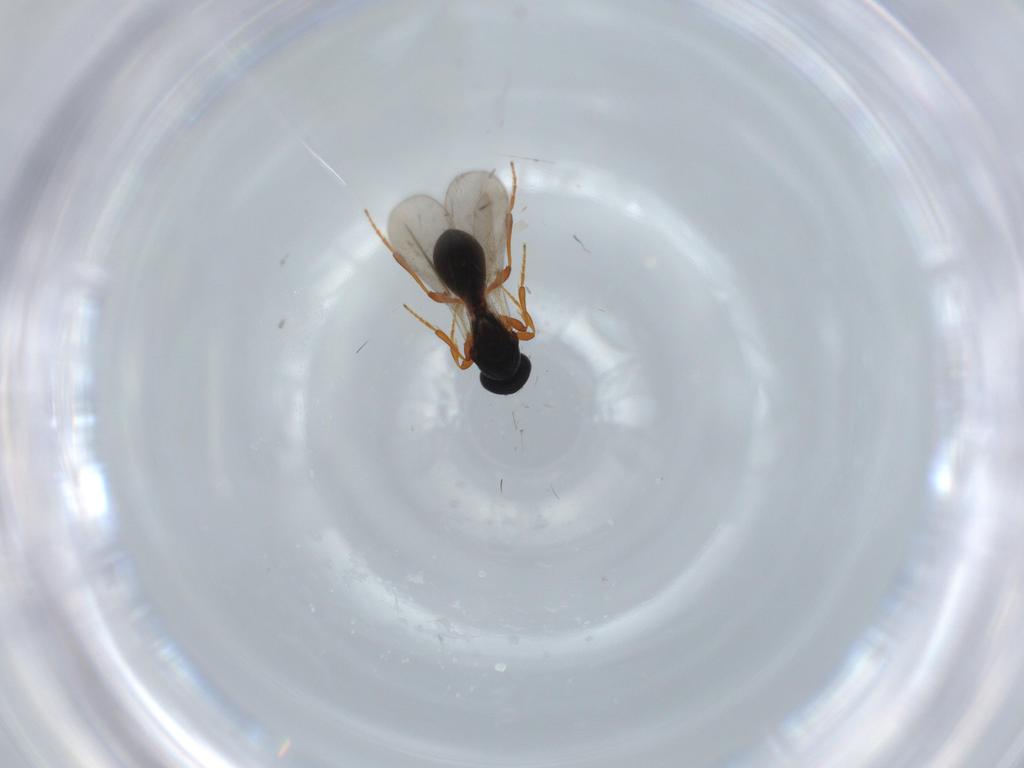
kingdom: Animalia
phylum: Arthropoda
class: Insecta
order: Hymenoptera
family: Platygastridae
